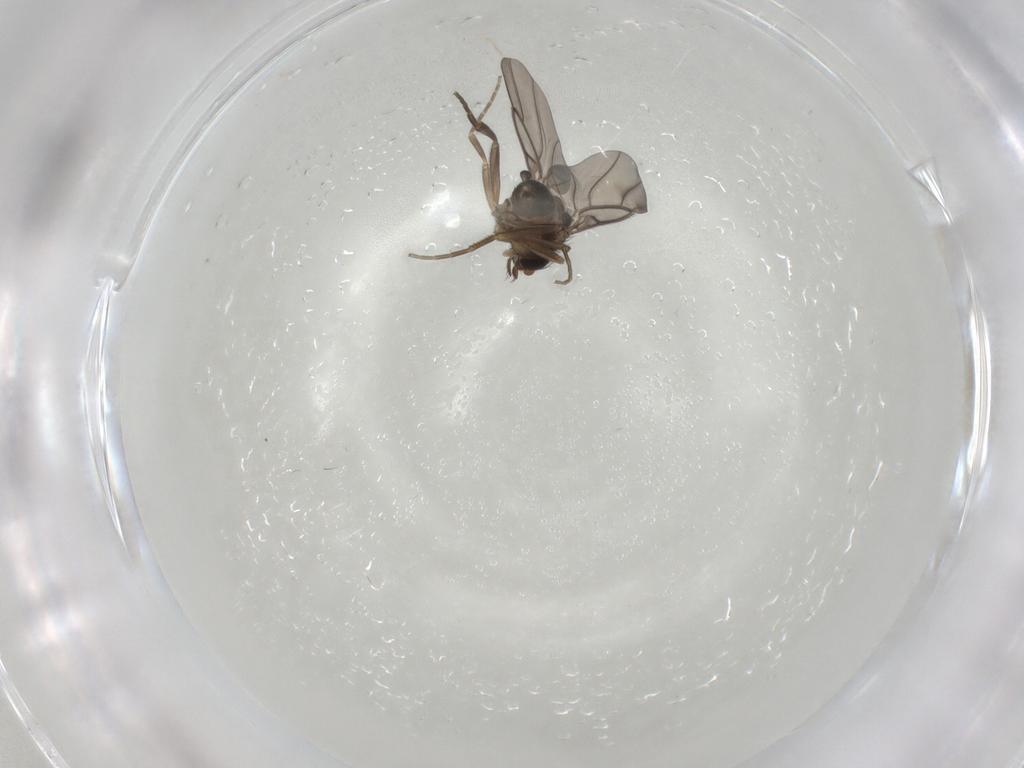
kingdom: Animalia
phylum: Arthropoda
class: Insecta
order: Diptera
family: Phoridae
